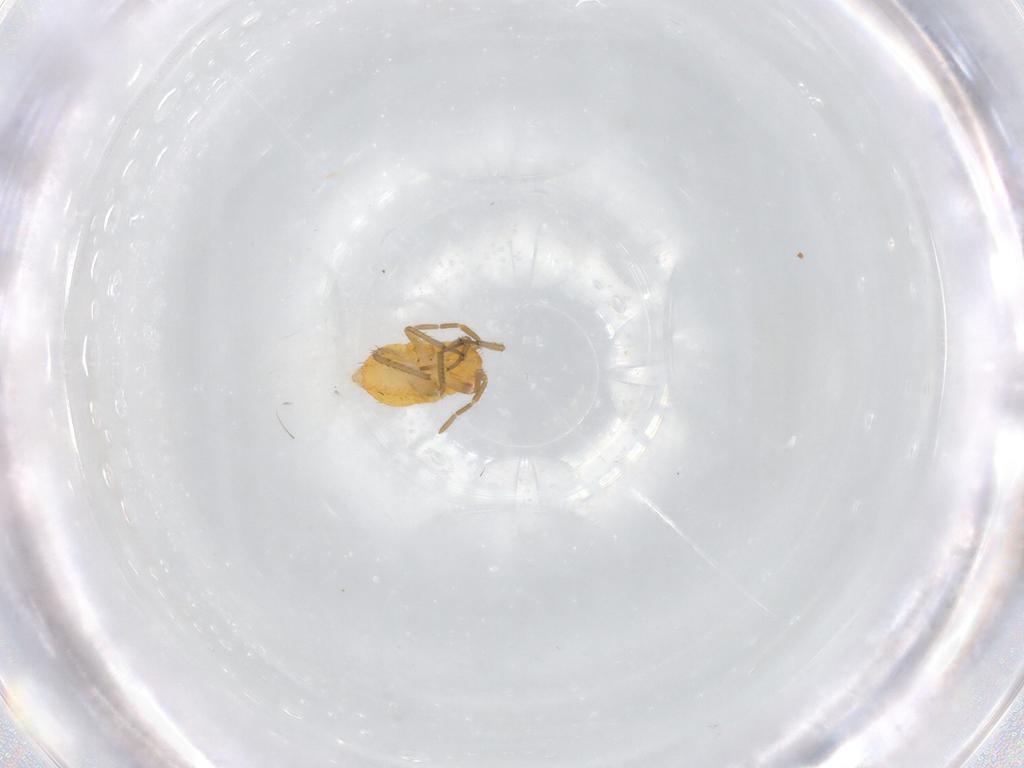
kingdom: Animalia
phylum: Arthropoda
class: Insecta
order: Hemiptera
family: Miridae
